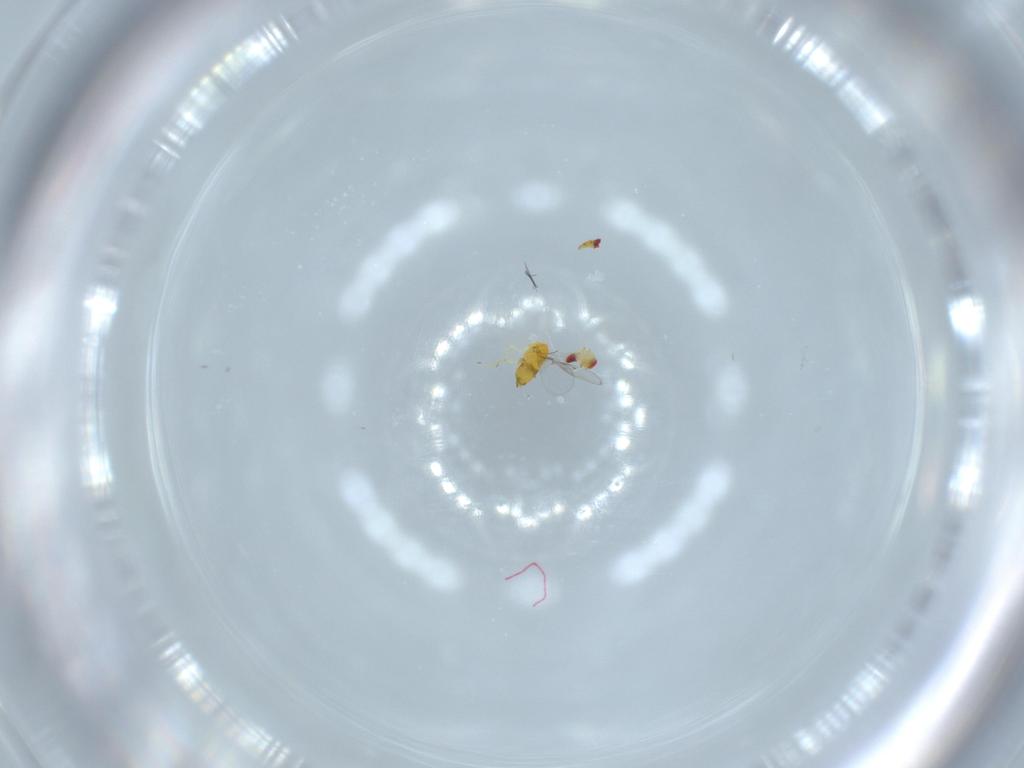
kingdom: Animalia
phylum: Arthropoda
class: Insecta
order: Hymenoptera
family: Trichogrammatidae
